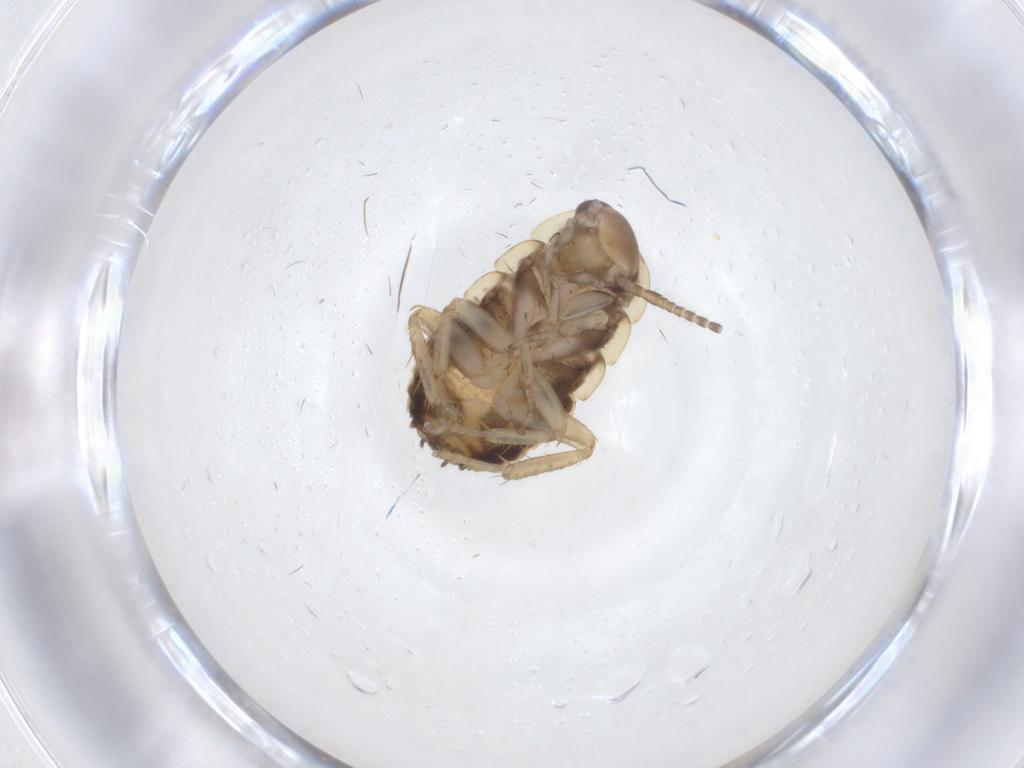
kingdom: Animalia
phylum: Arthropoda
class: Insecta
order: Blattodea
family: Ectobiidae
